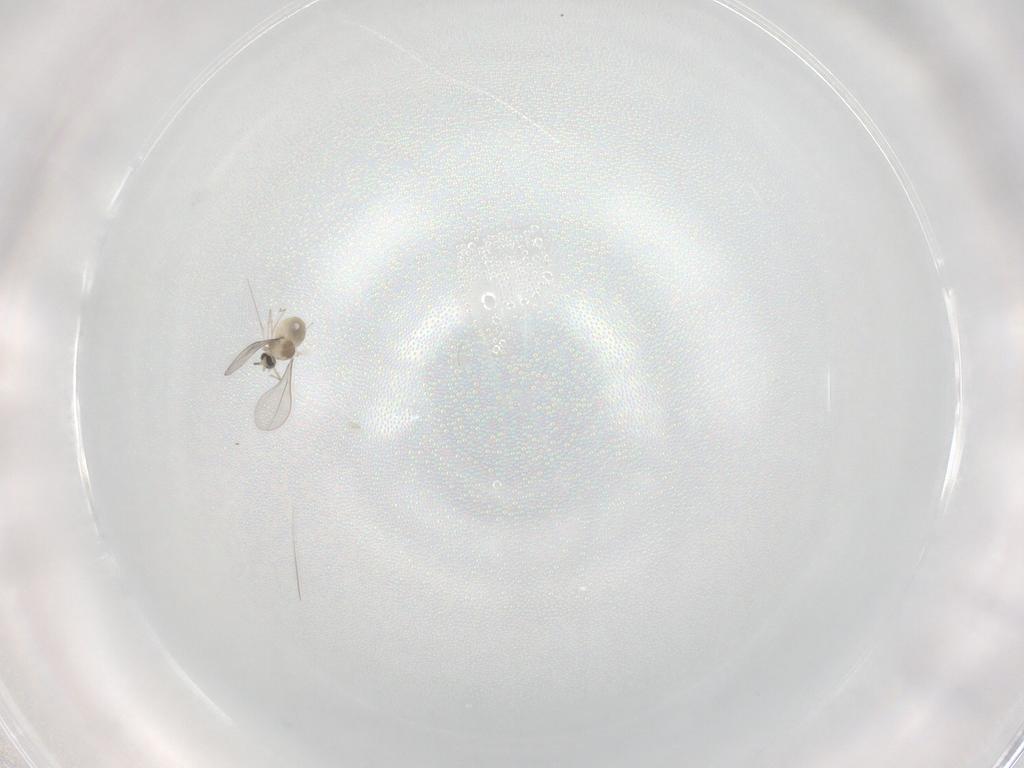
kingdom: Animalia
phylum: Arthropoda
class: Insecta
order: Diptera
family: Cecidomyiidae
